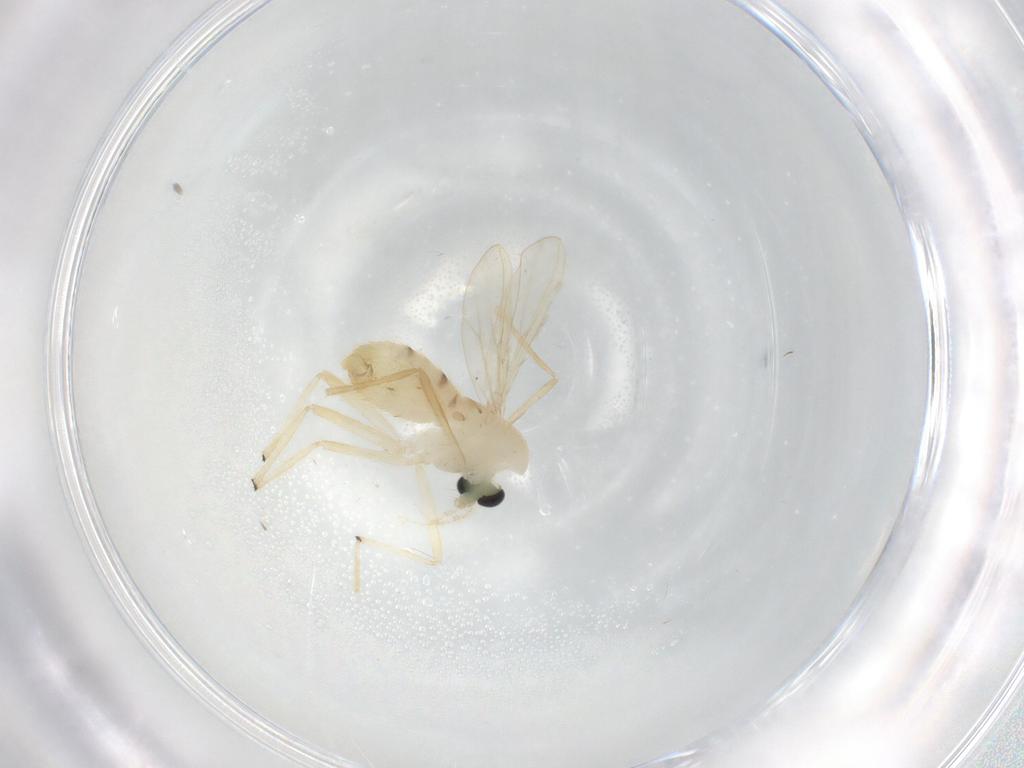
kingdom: Animalia
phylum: Arthropoda
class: Insecta
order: Diptera
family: Chironomidae
